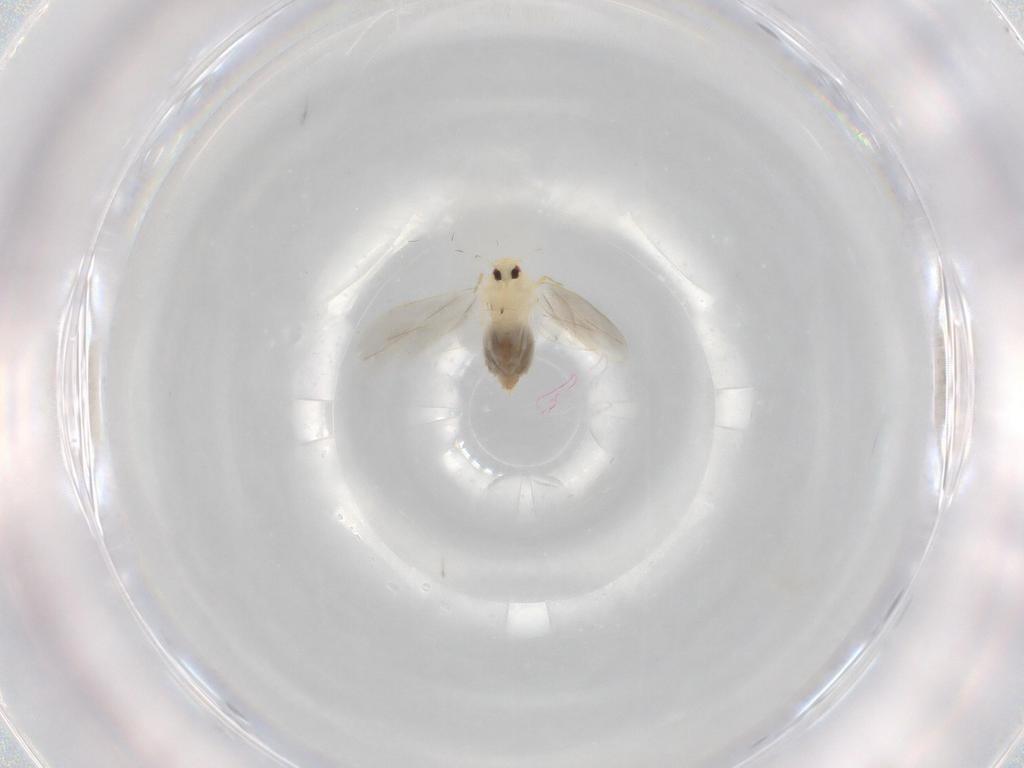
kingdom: Animalia
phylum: Arthropoda
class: Insecta
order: Hemiptera
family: Aleyrodidae
